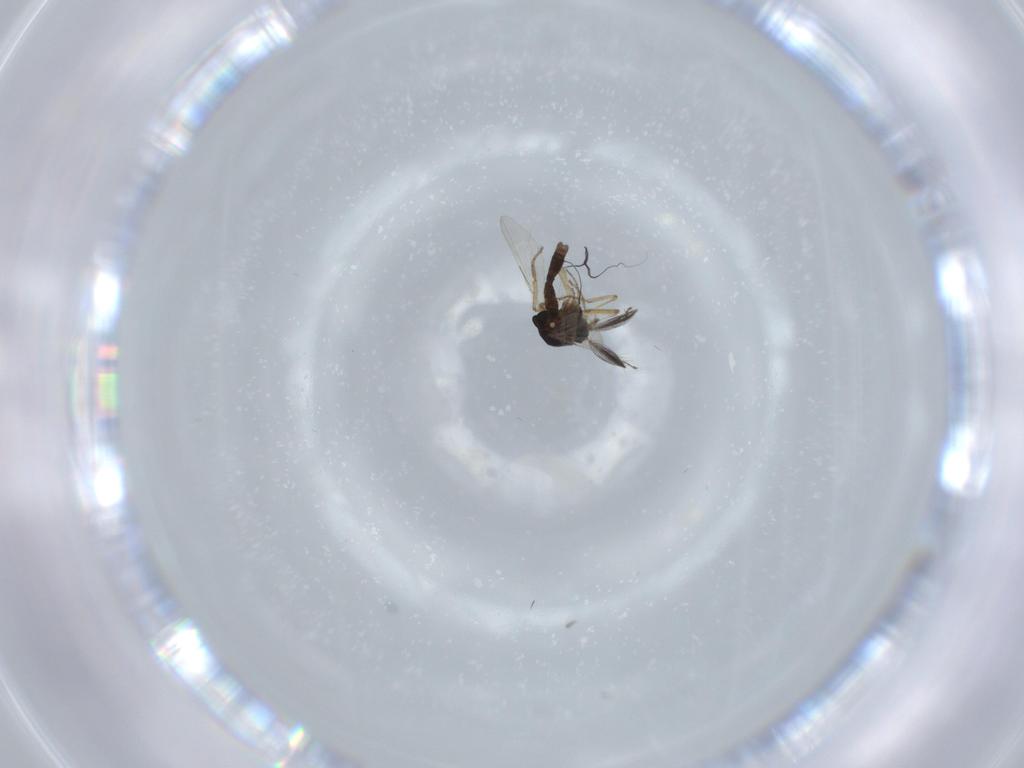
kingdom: Animalia
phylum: Arthropoda
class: Insecta
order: Diptera
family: Ceratopogonidae
